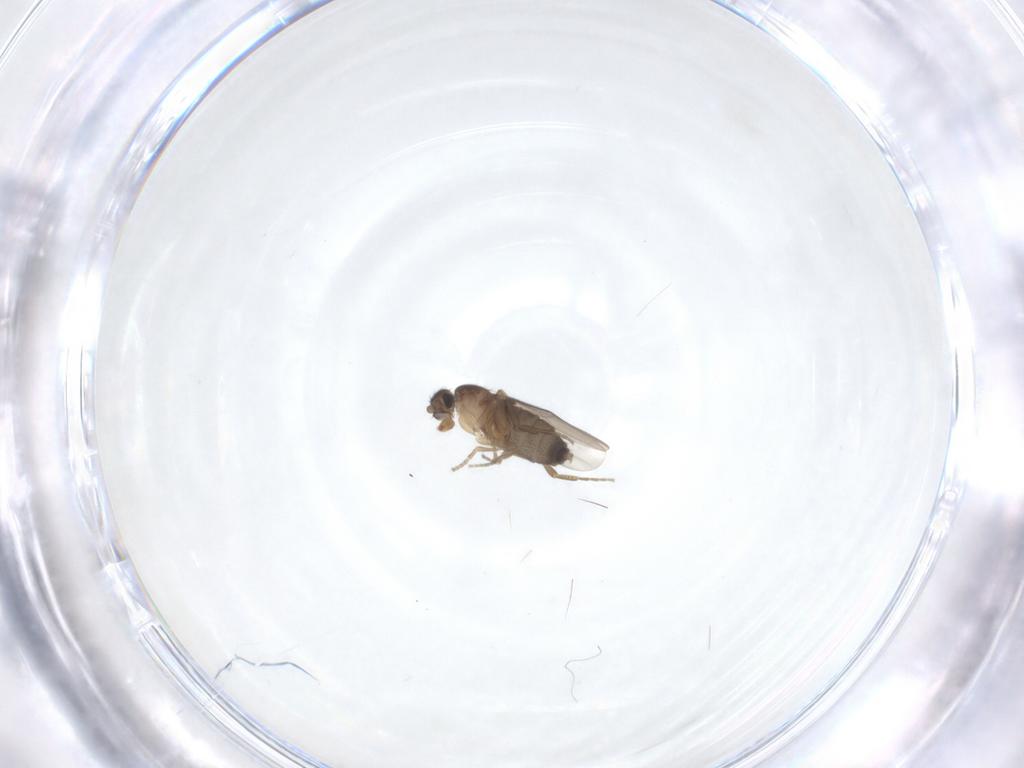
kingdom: Animalia
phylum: Arthropoda
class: Insecta
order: Diptera
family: Phoridae
